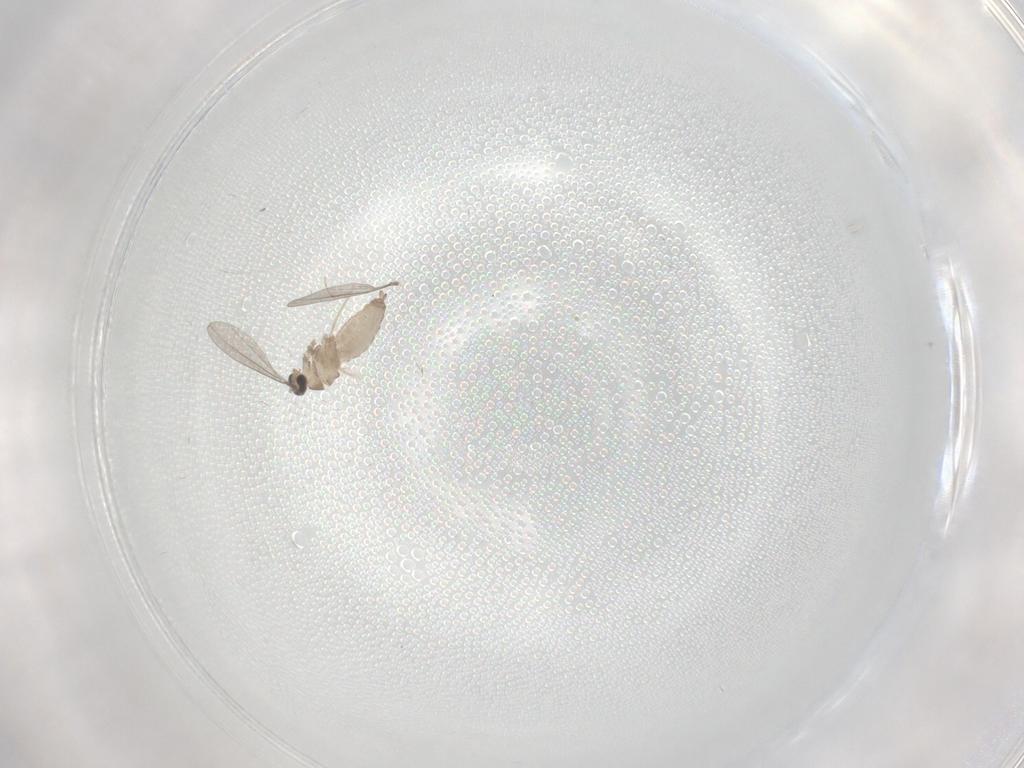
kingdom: Animalia
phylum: Arthropoda
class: Insecta
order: Diptera
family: Cecidomyiidae
